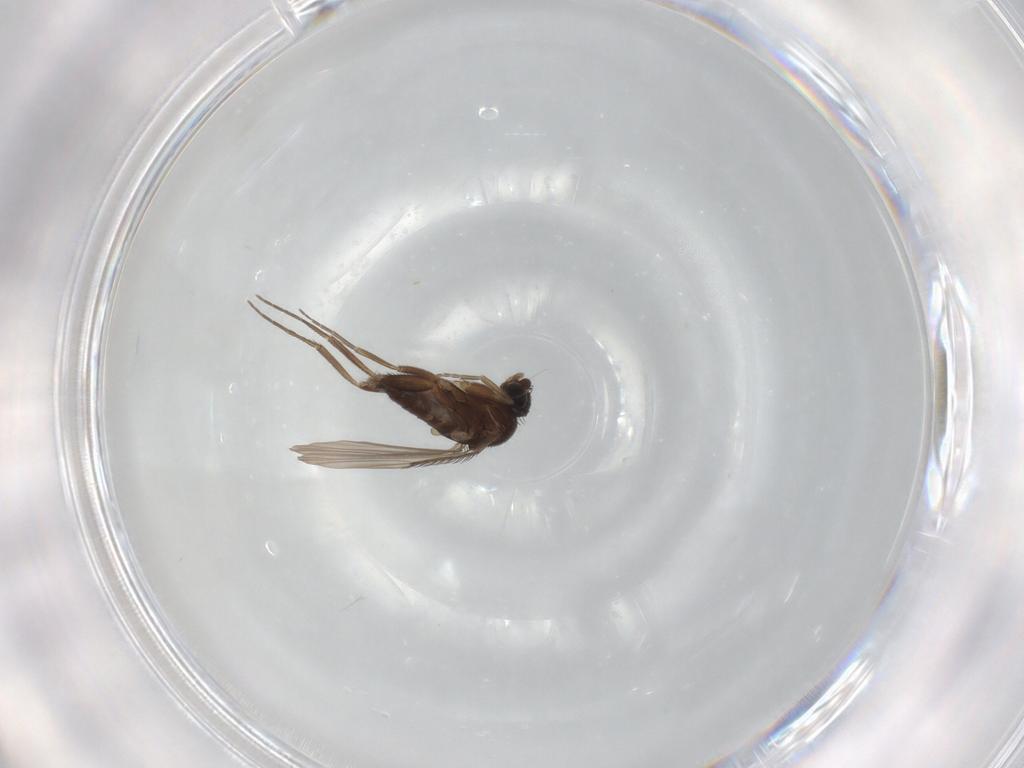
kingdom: Animalia
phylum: Arthropoda
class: Insecta
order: Diptera
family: Phoridae
